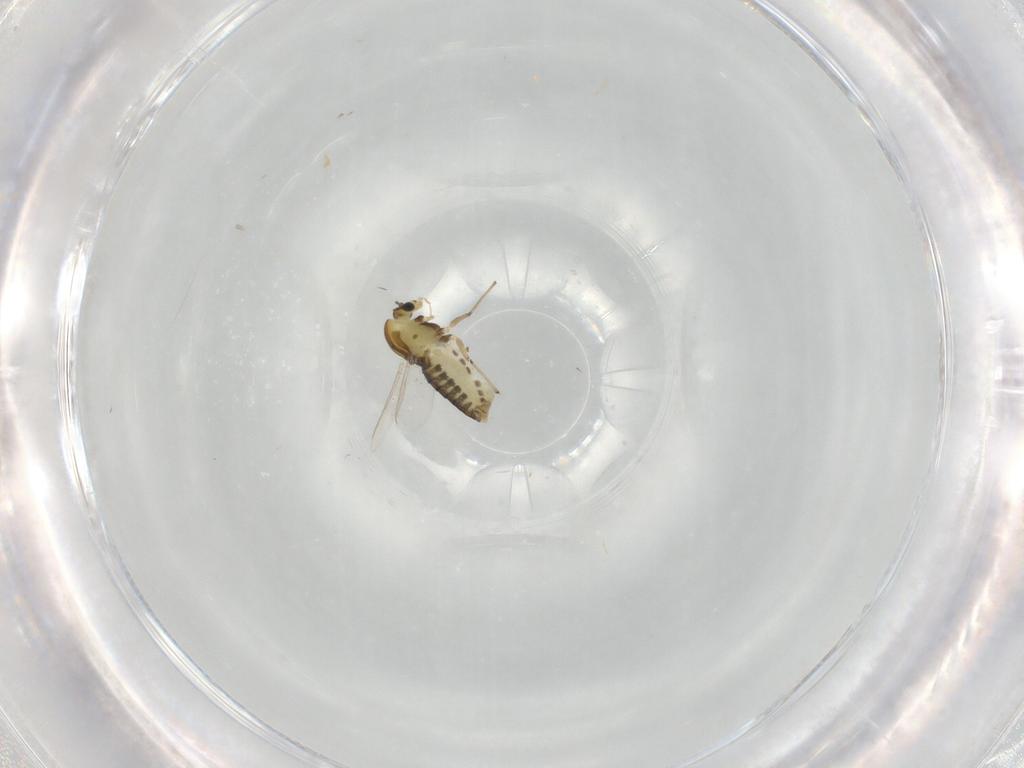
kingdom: Animalia
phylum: Arthropoda
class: Insecta
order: Diptera
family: Chironomidae
